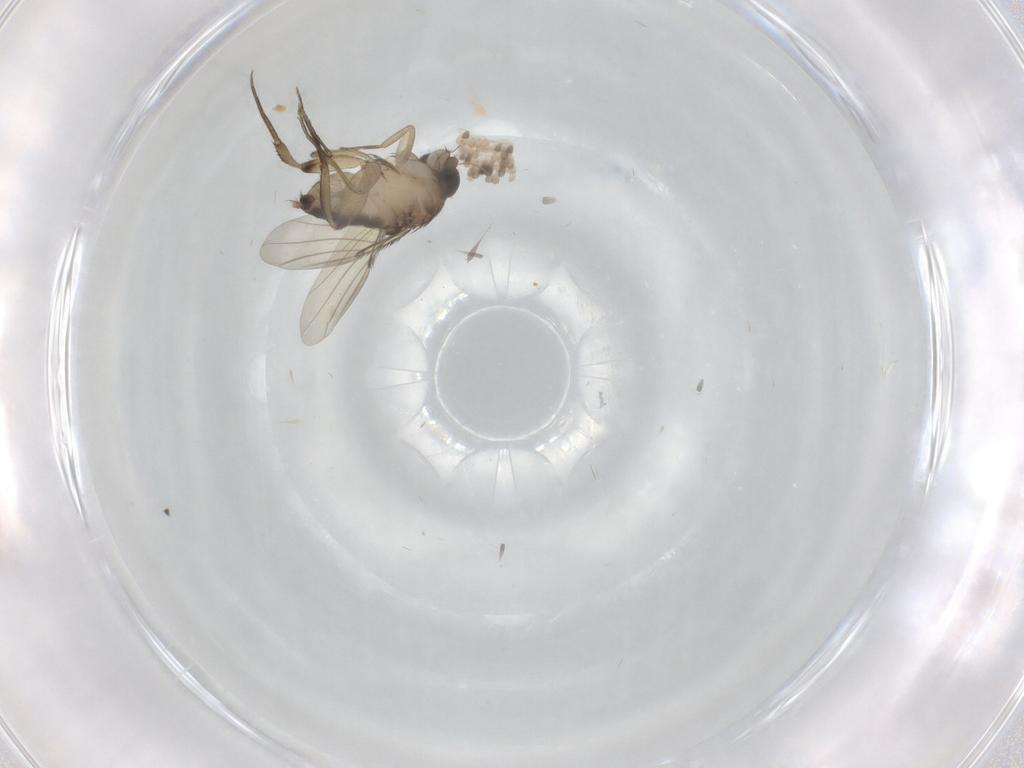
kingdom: Animalia
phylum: Arthropoda
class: Insecta
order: Diptera
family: Phoridae
